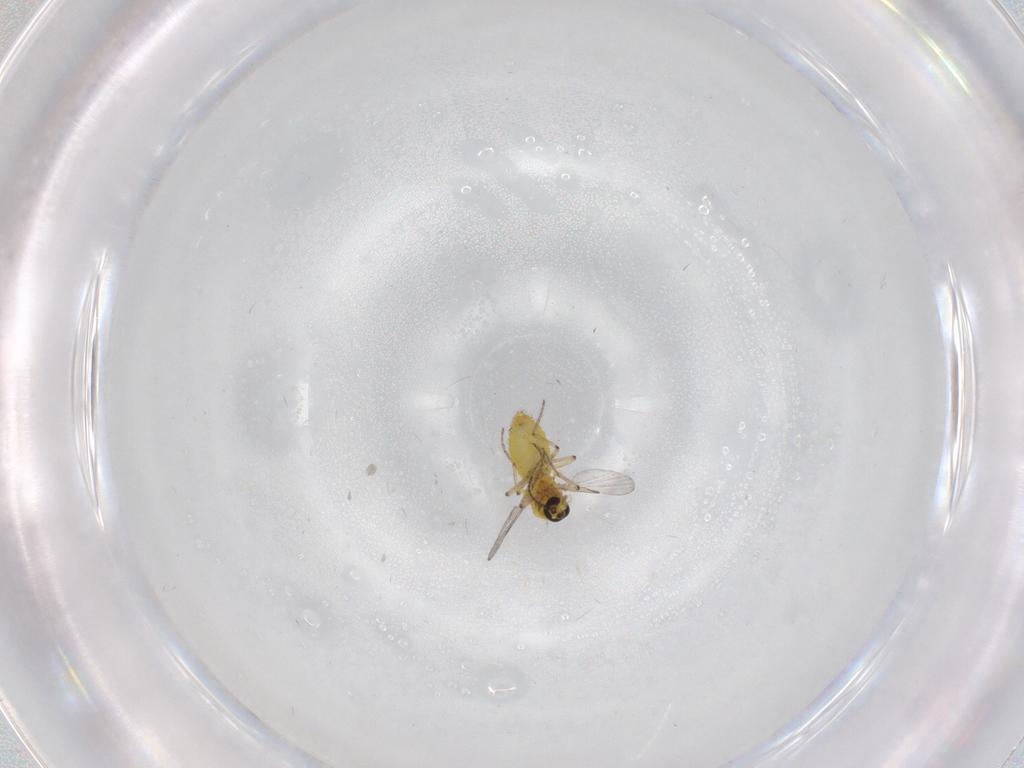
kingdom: Animalia
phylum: Arthropoda
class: Insecta
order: Diptera
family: Ceratopogonidae
